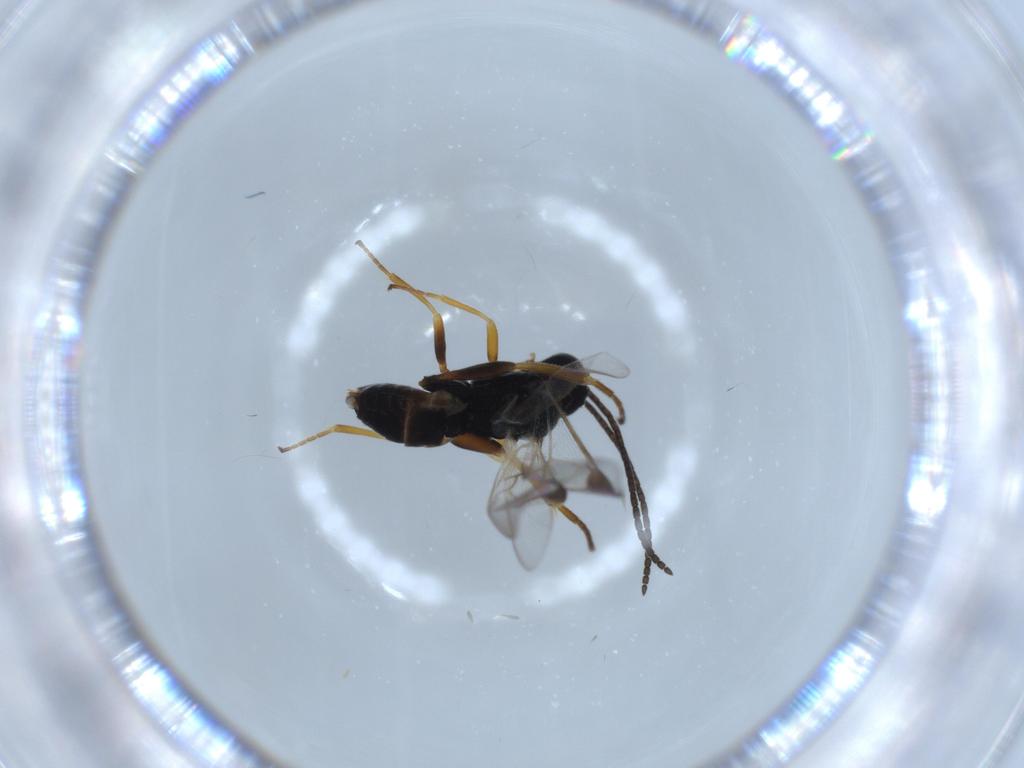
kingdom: Animalia
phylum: Arthropoda
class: Insecta
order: Hymenoptera
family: Braconidae
